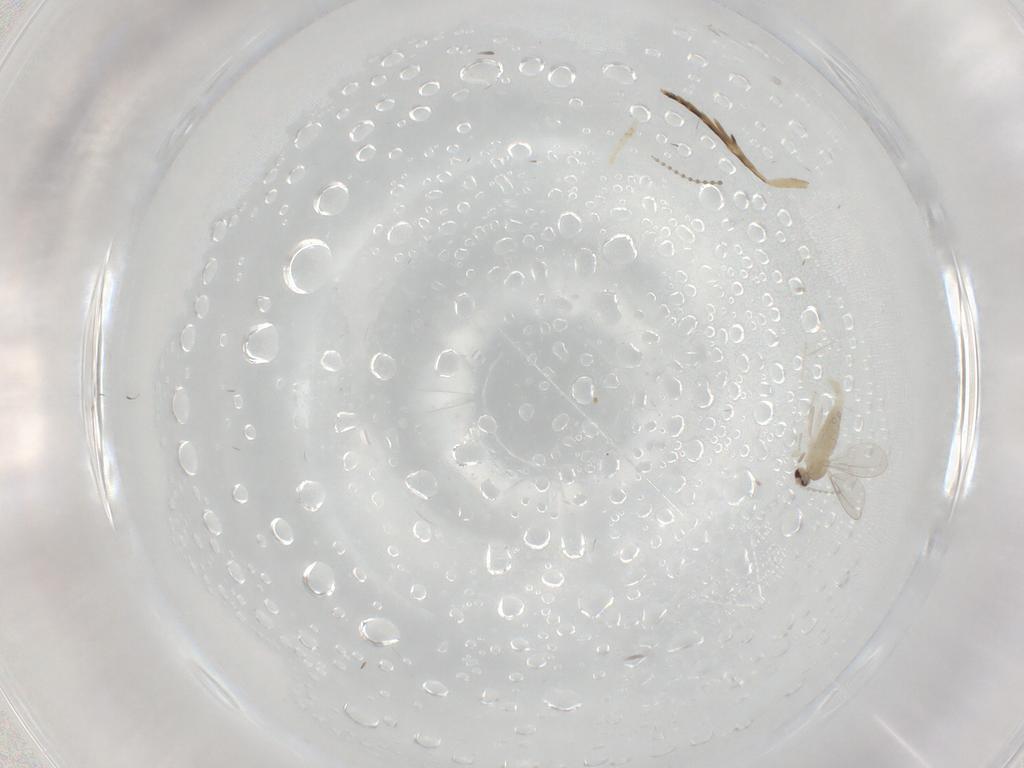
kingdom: Animalia
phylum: Arthropoda
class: Insecta
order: Diptera
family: Cecidomyiidae
